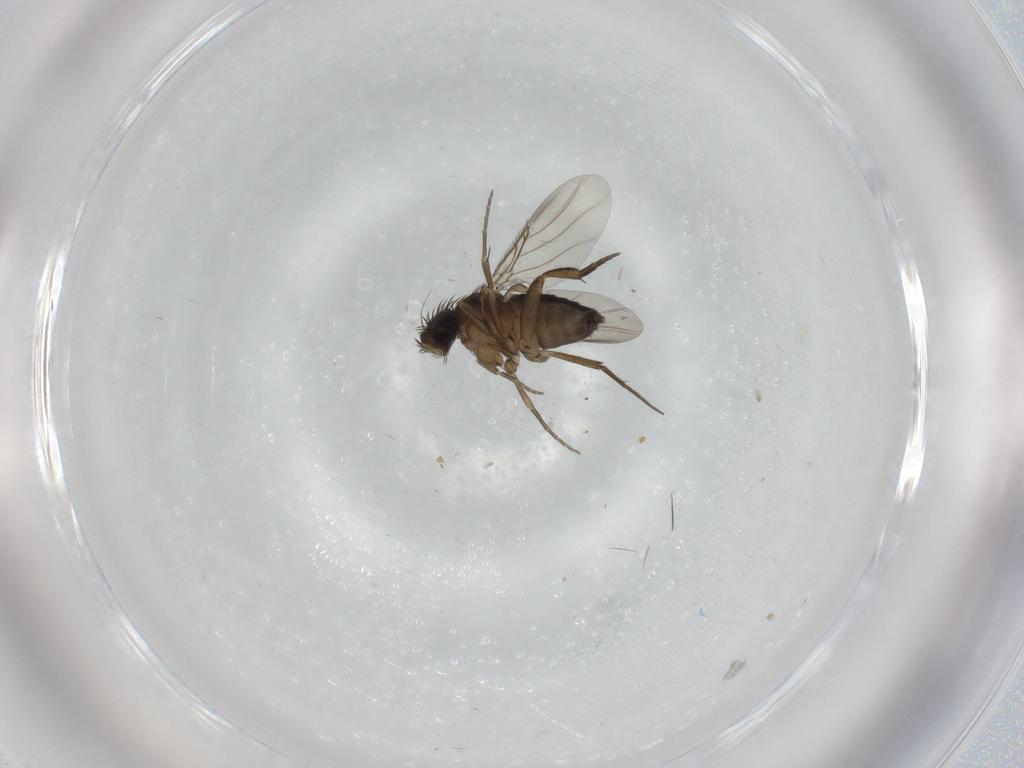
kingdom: Animalia
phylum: Arthropoda
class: Insecta
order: Diptera
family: Phoridae
